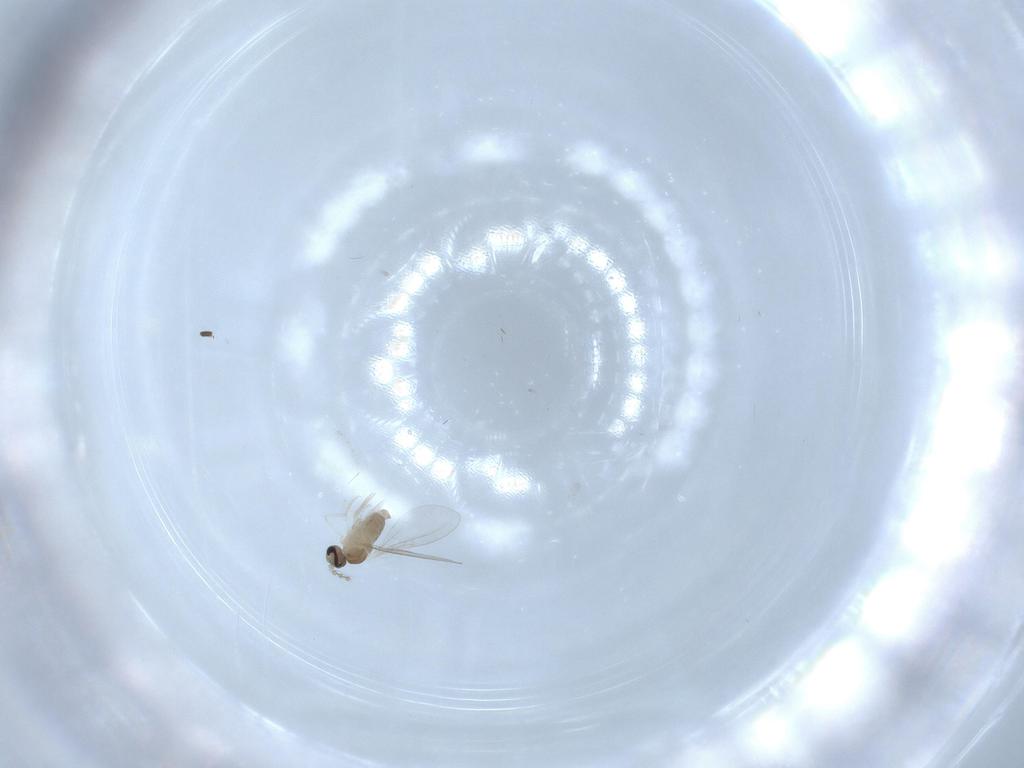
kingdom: Animalia
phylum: Arthropoda
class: Insecta
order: Diptera
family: Cecidomyiidae
